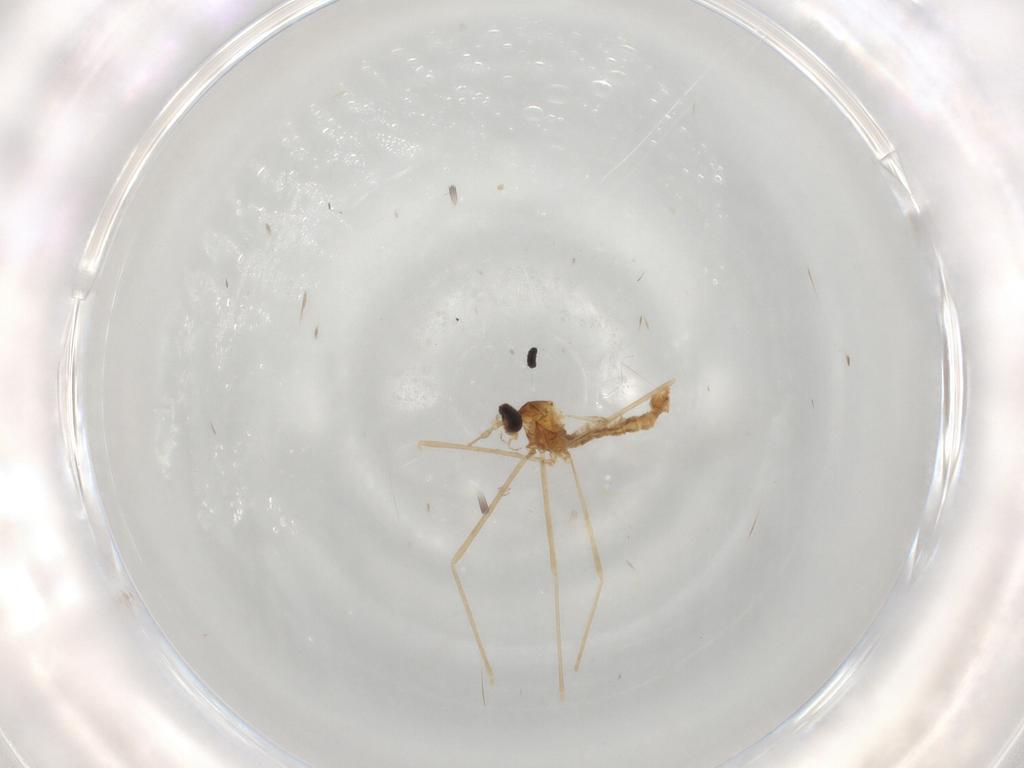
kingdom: Animalia
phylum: Arthropoda
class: Insecta
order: Diptera
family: Cecidomyiidae
